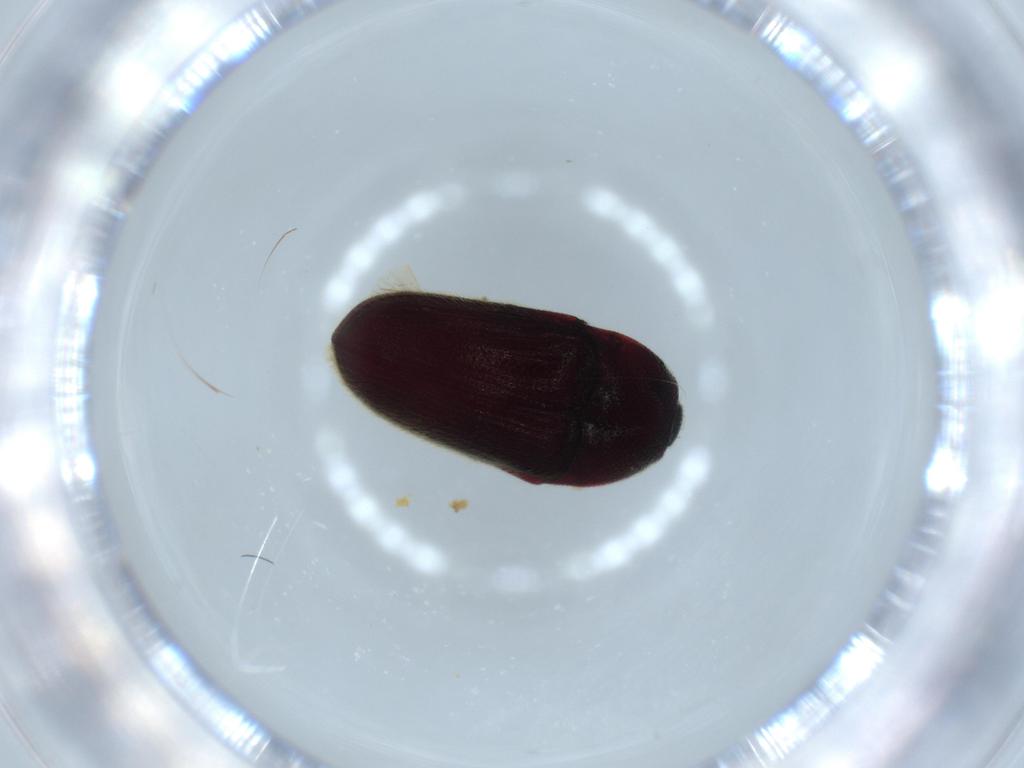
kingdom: Animalia
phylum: Arthropoda
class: Insecta
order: Coleoptera
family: Throscidae
